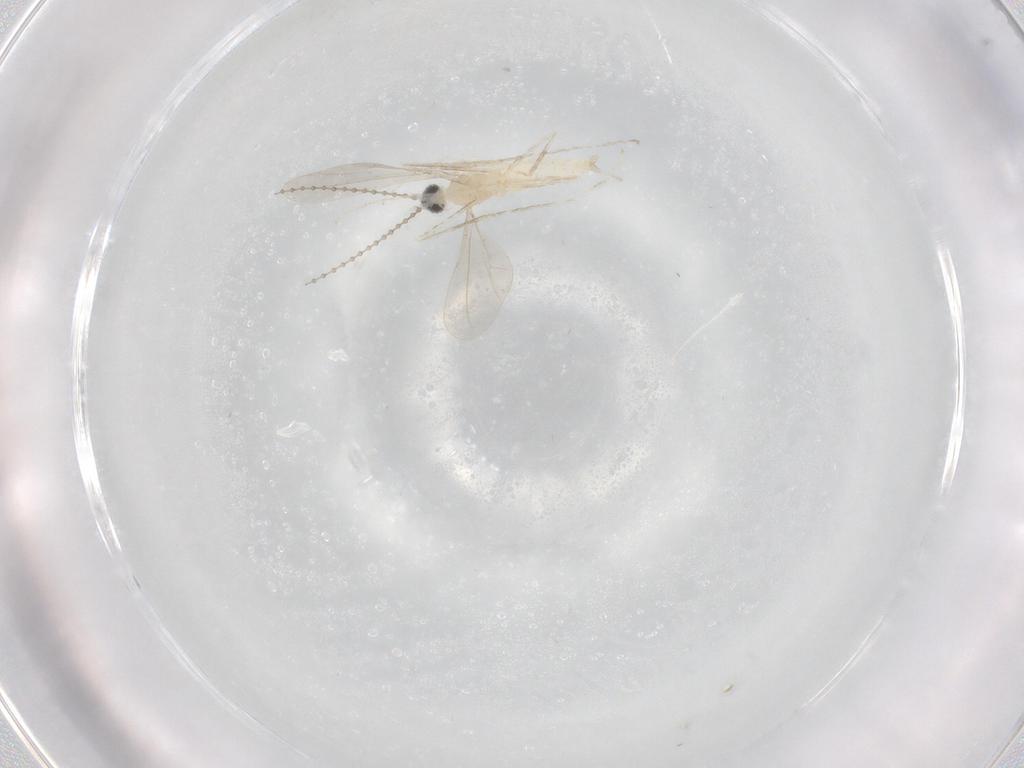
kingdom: Animalia
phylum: Arthropoda
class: Insecta
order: Diptera
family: Cecidomyiidae
